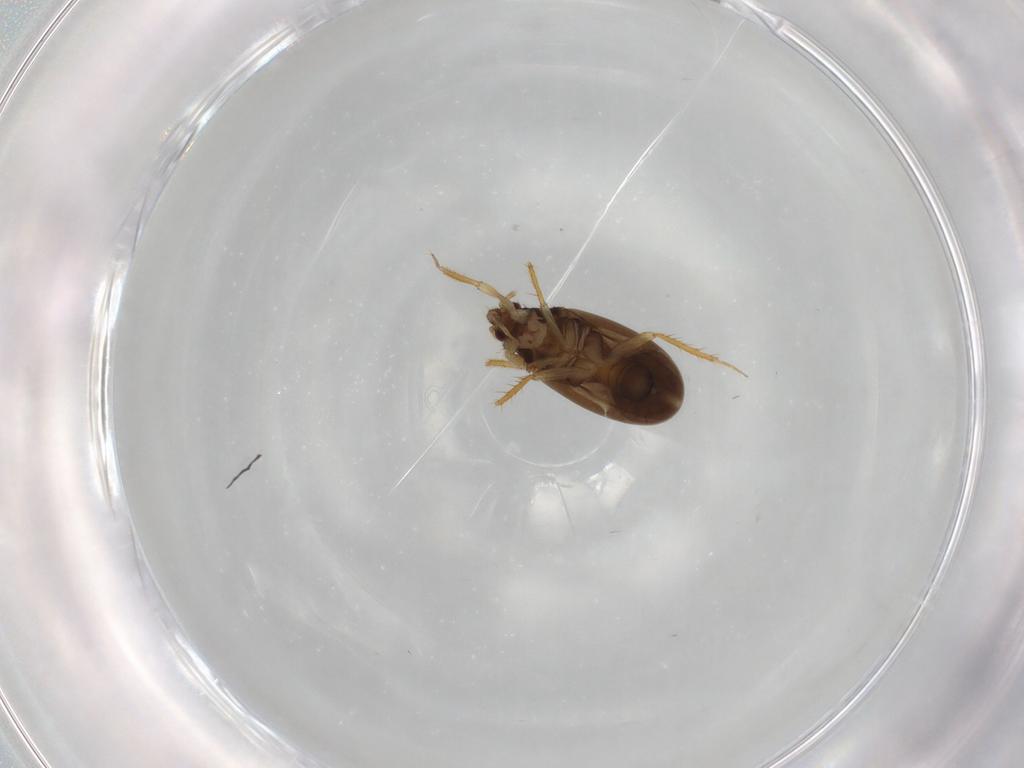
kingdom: Animalia
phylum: Arthropoda
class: Insecta
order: Hemiptera
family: Ceratocombidae
